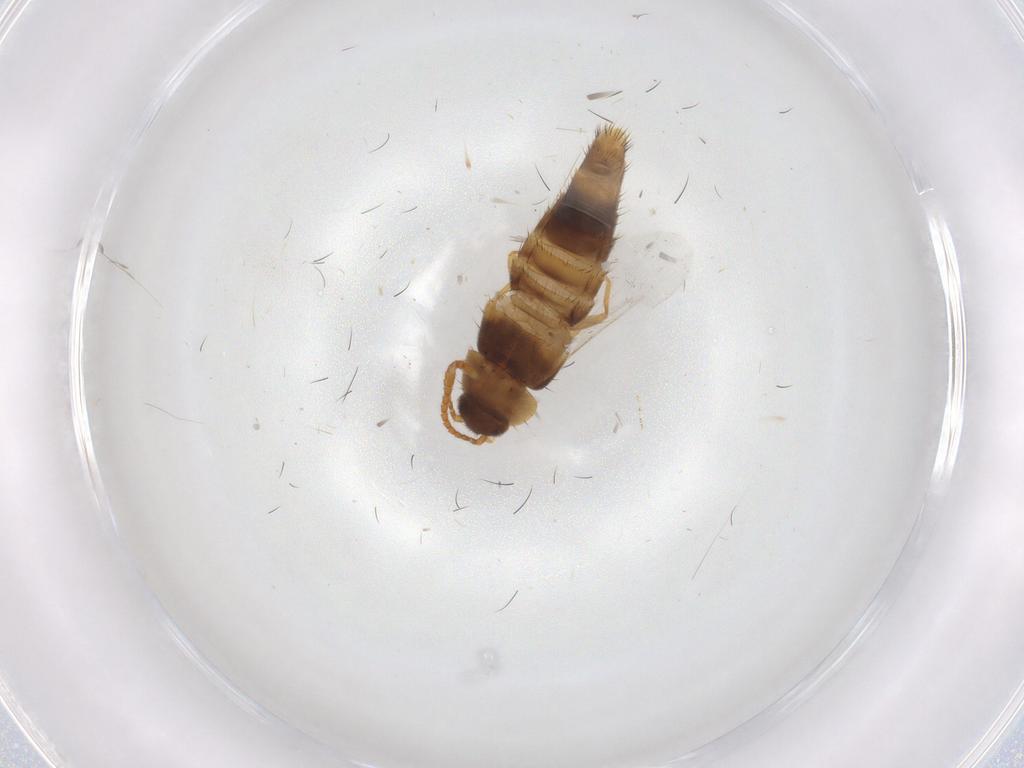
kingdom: Animalia
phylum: Arthropoda
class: Insecta
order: Coleoptera
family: Staphylinidae
